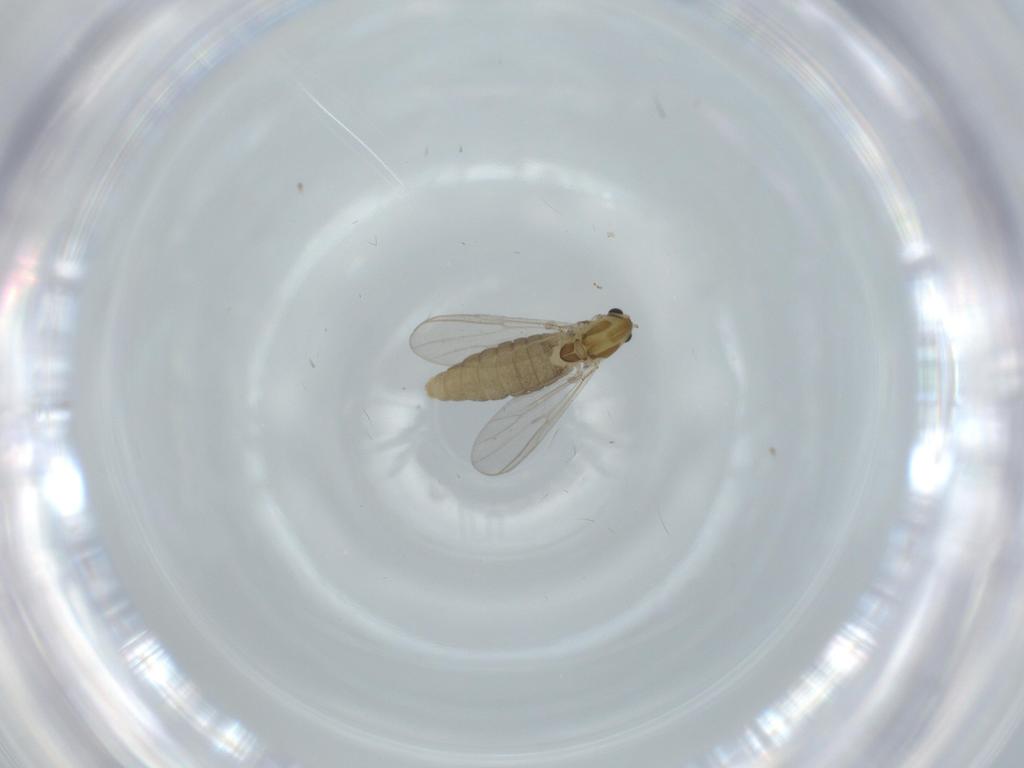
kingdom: Animalia
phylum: Arthropoda
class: Insecta
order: Diptera
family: Chironomidae
